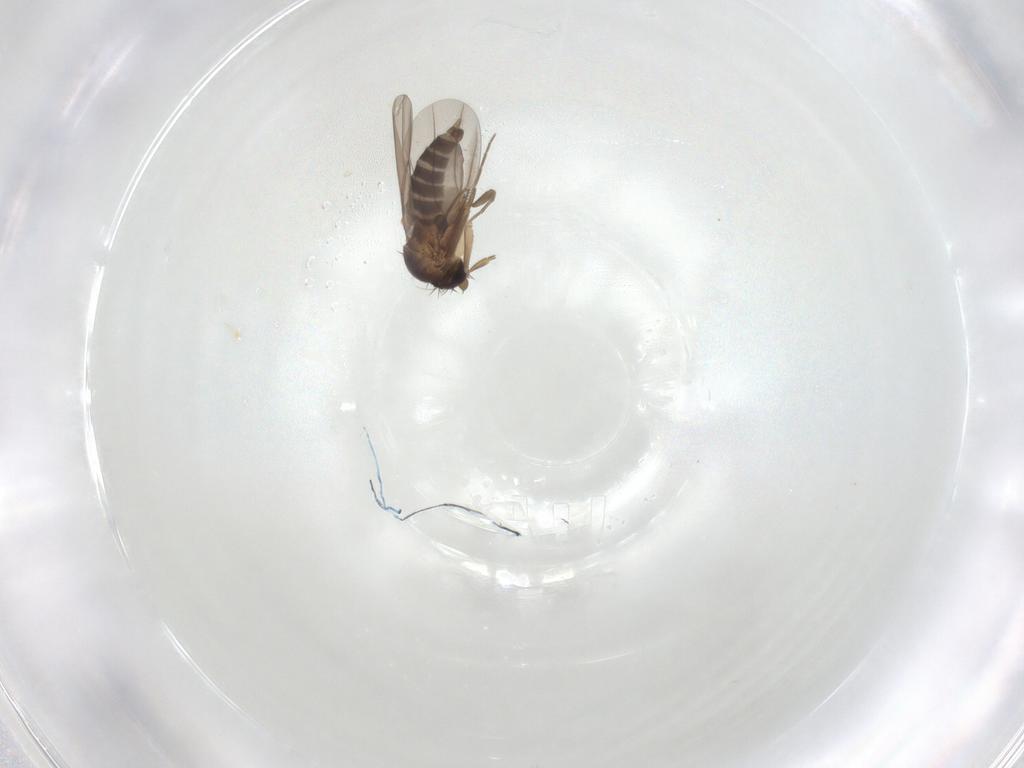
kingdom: Animalia
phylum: Arthropoda
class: Insecta
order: Diptera
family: Phoridae
